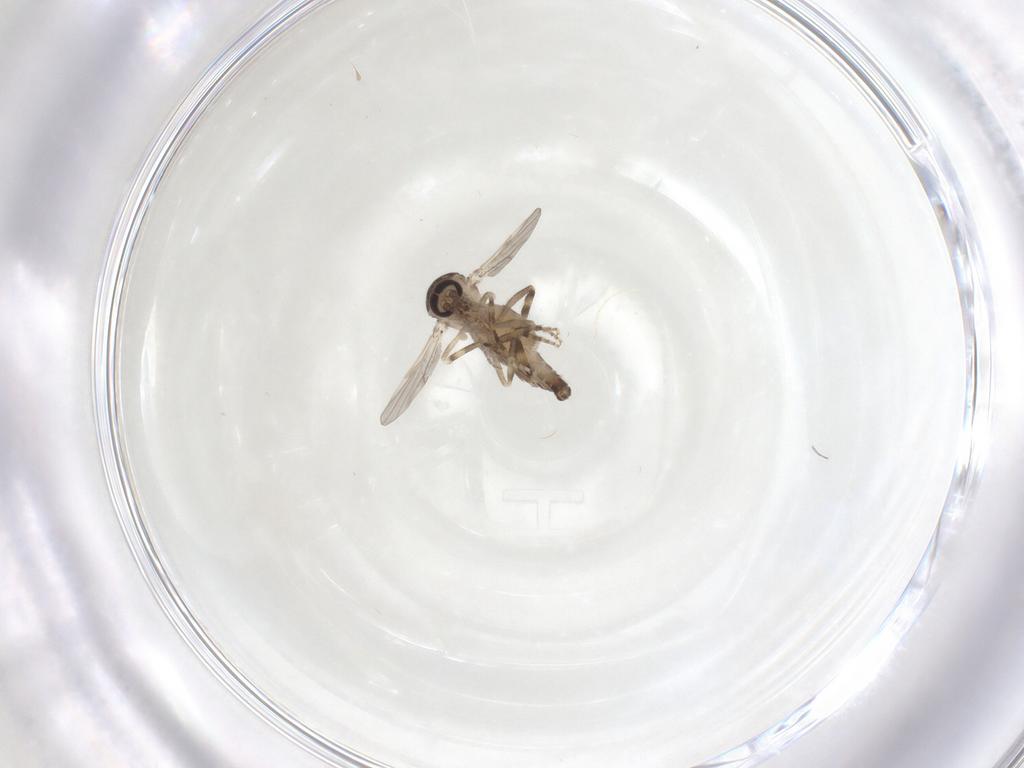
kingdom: Animalia
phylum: Arthropoda
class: Insecta
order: Diptera
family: Ceratopogonidae
